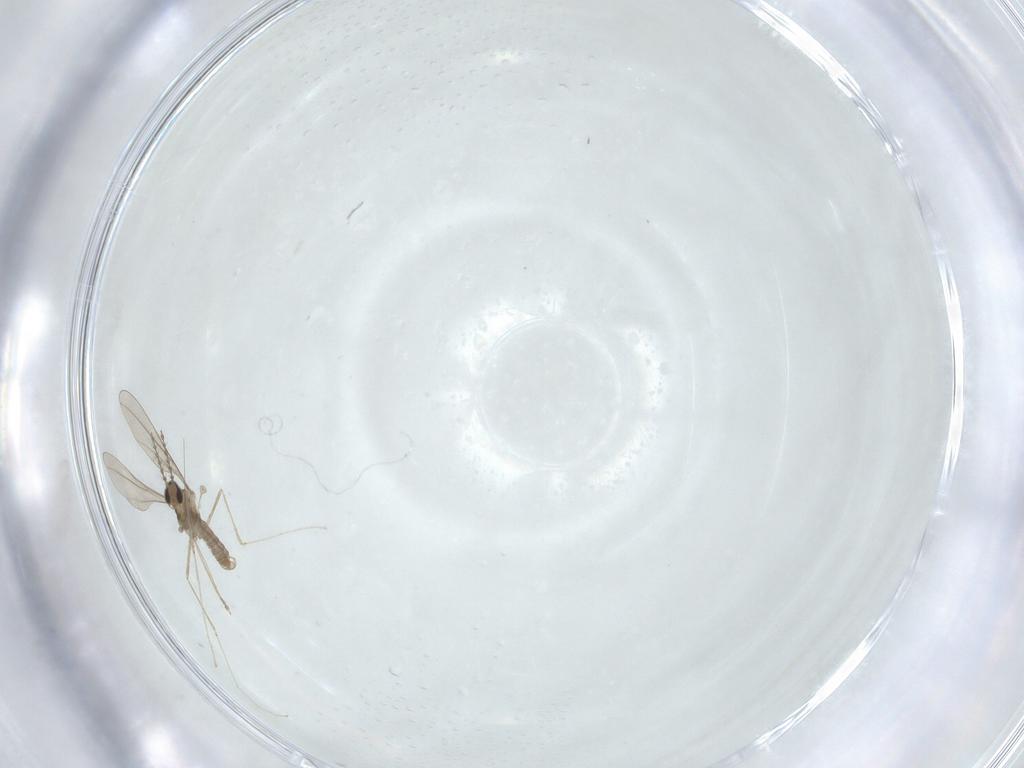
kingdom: Animalia
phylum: Arthropoda
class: Insecta
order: Diptera
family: Cecidomyiidae
